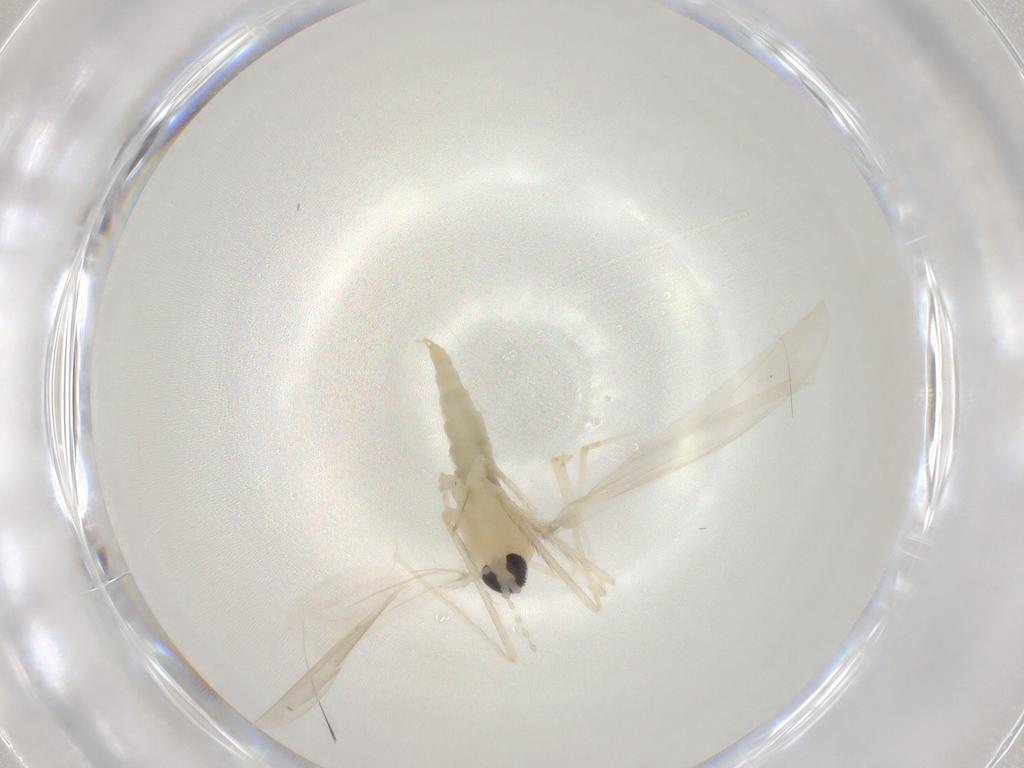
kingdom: Animalia
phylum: Arthropoda
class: Insecta
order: Diptera
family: Cecidomyiidae
